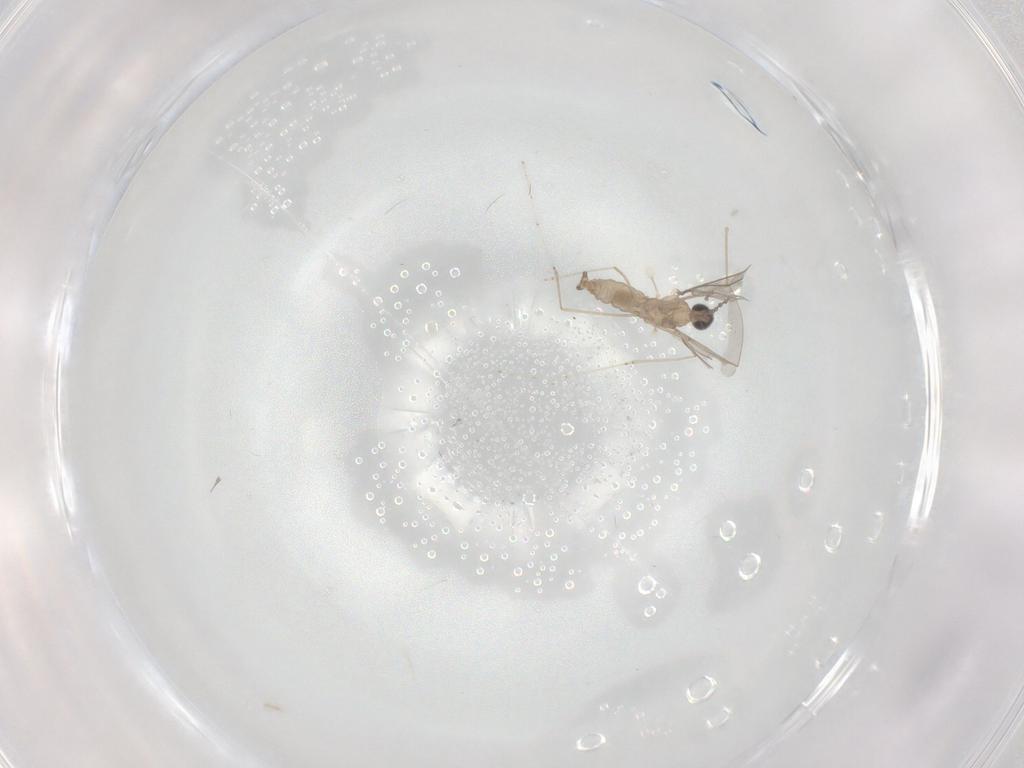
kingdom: Animalia
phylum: Arthropoda
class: Insecta
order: Diptera
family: Cecidomyiidae
